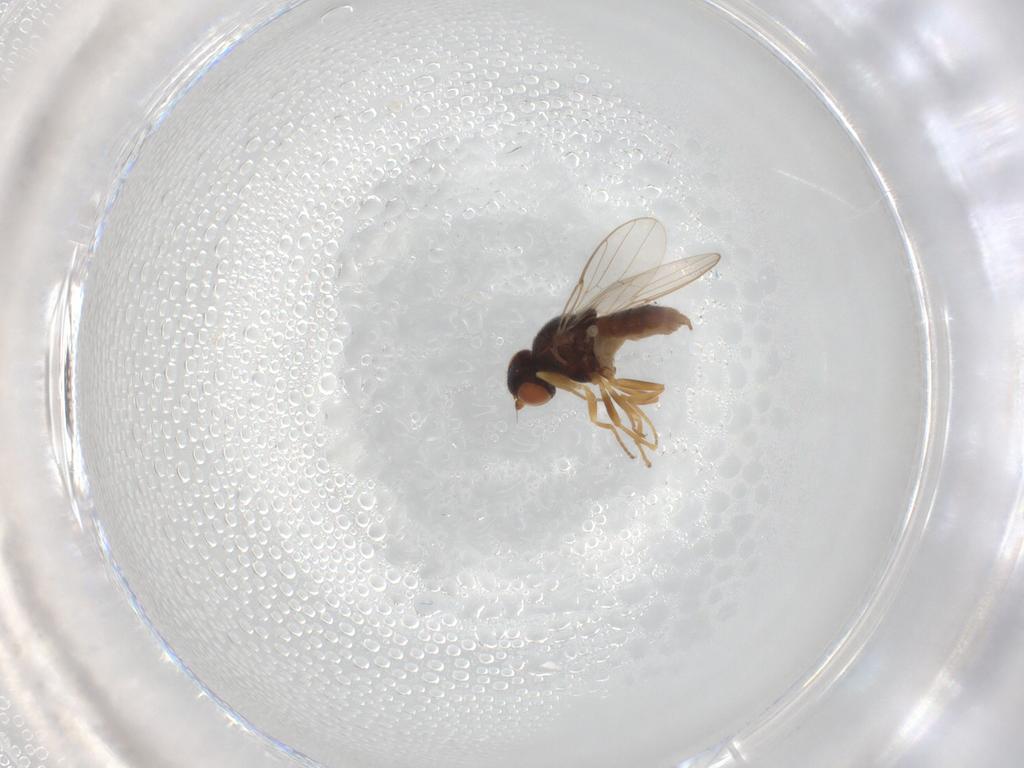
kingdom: Animalia
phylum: Arthropoda
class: Insecta
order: Diptera
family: Chloropidae
